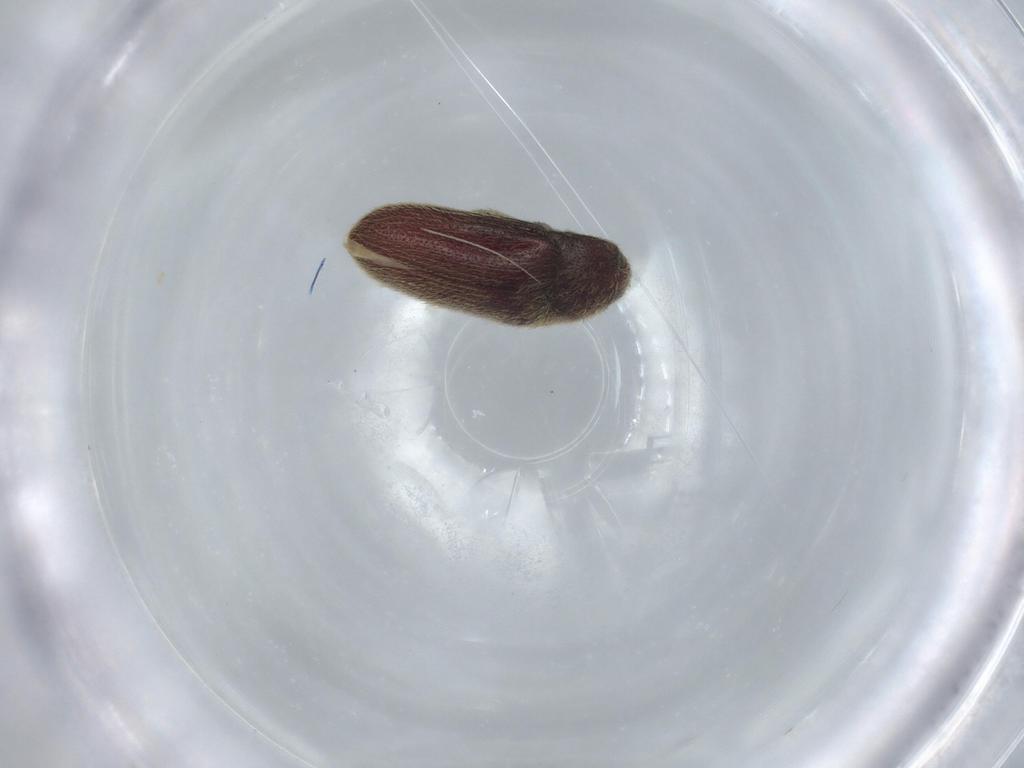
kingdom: Animalia
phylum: Arthropoda
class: Insecta
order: Coleoptera
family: Throscidae
